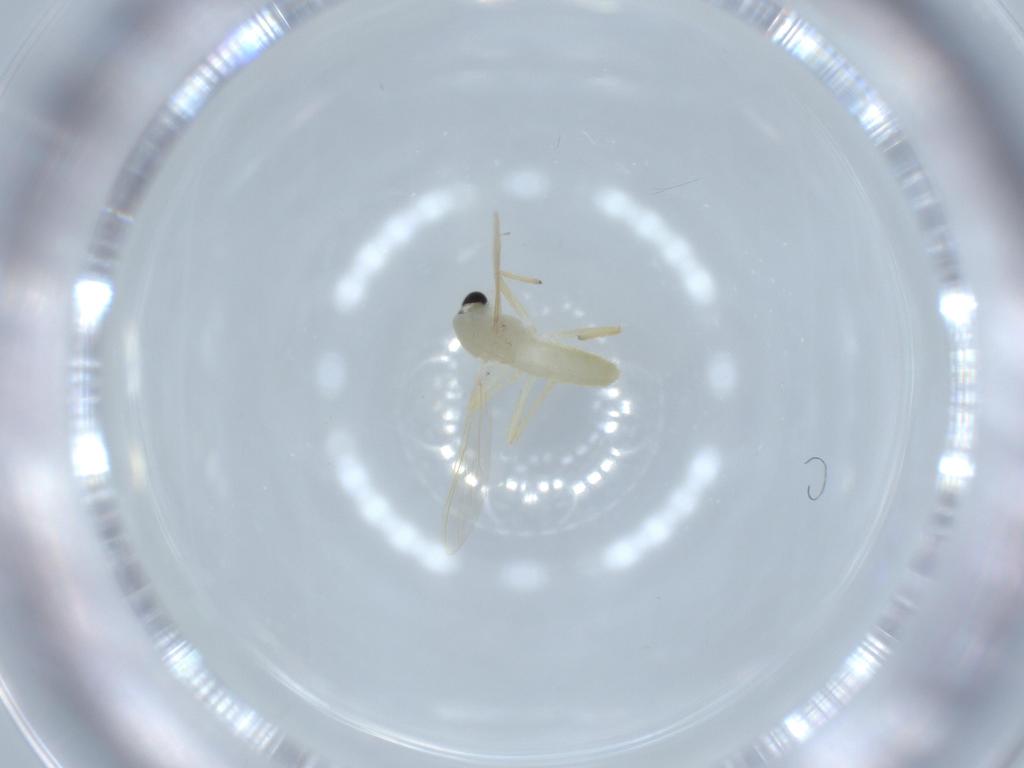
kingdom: Animalia
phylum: Arthropoda
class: Insecta
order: Diptera
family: Chironomidae
